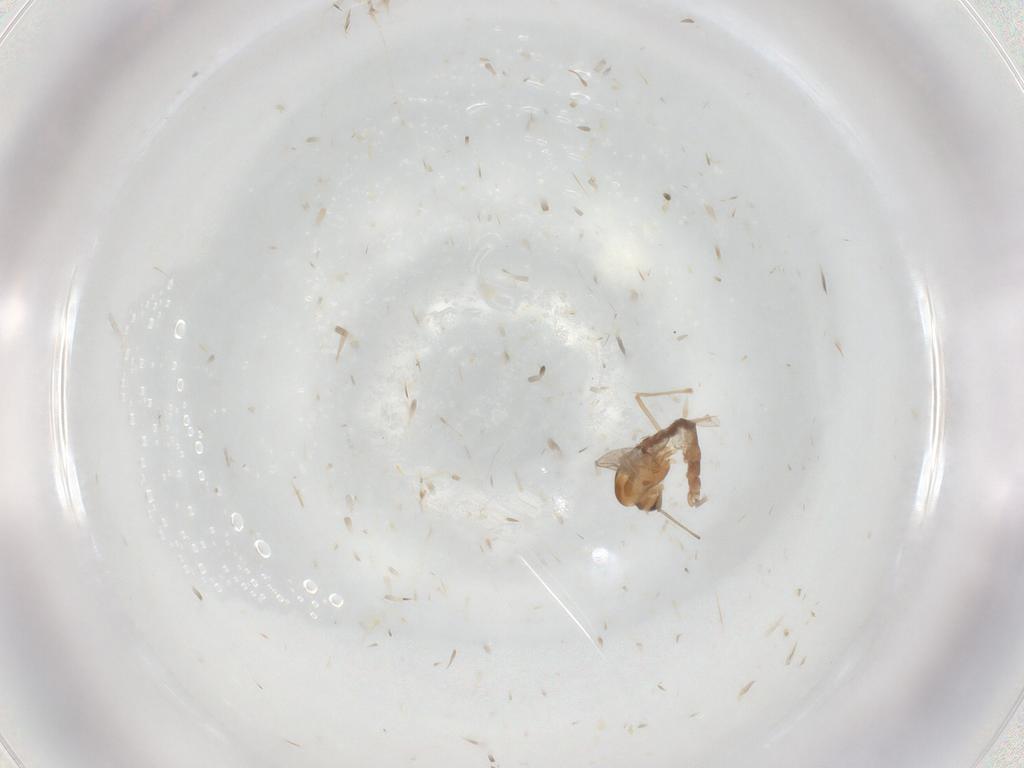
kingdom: Animalia
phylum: Arthropoda
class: Insecta
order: Diptera
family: Chironomidae
